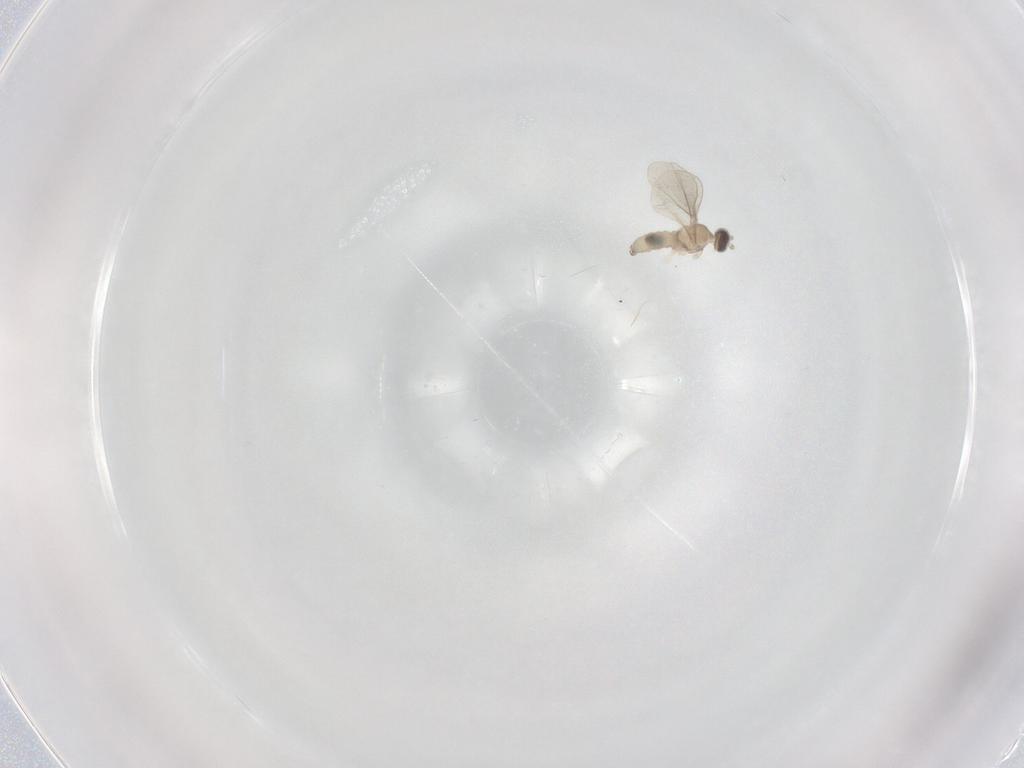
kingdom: Animalia
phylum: Arthropoda
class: Insecta
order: Diptera
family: Cecidomyiidae
